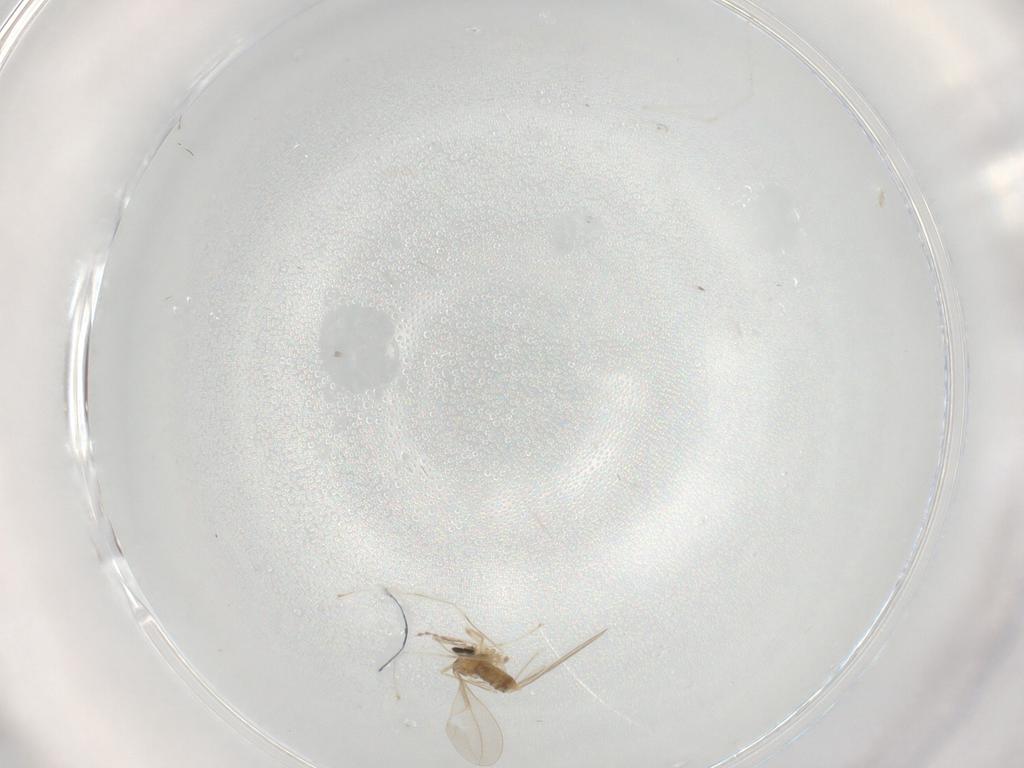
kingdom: Animalia
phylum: Arthropoda
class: Insecta
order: Diptera
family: Cecidomyiidae
